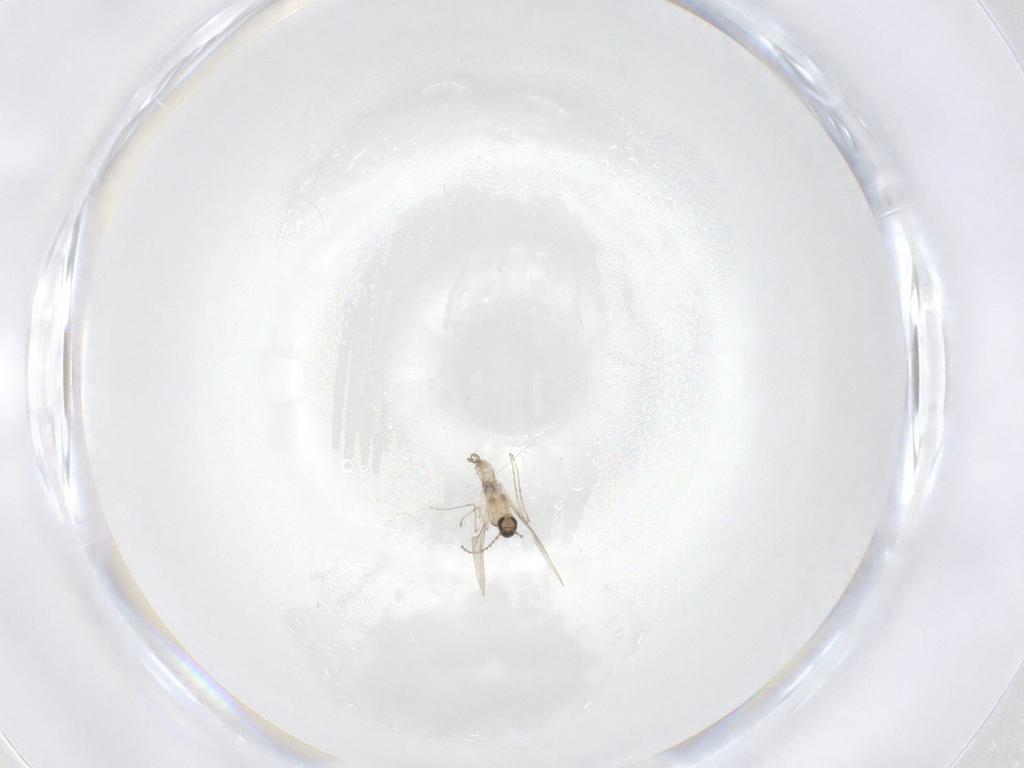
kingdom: Animalia
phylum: Arthropoda
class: Insecta
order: Diptera
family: Cecidomyiidae
